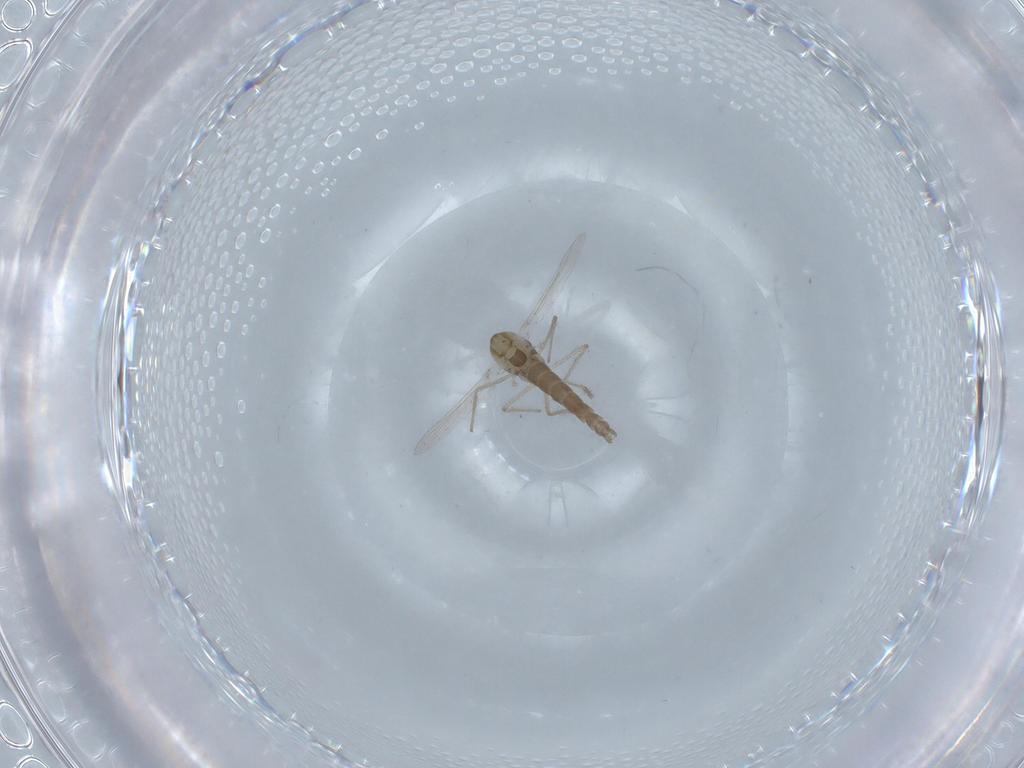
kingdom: Animalia
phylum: Arthropoda
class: Insecta
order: Diptera
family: Chironomidae
